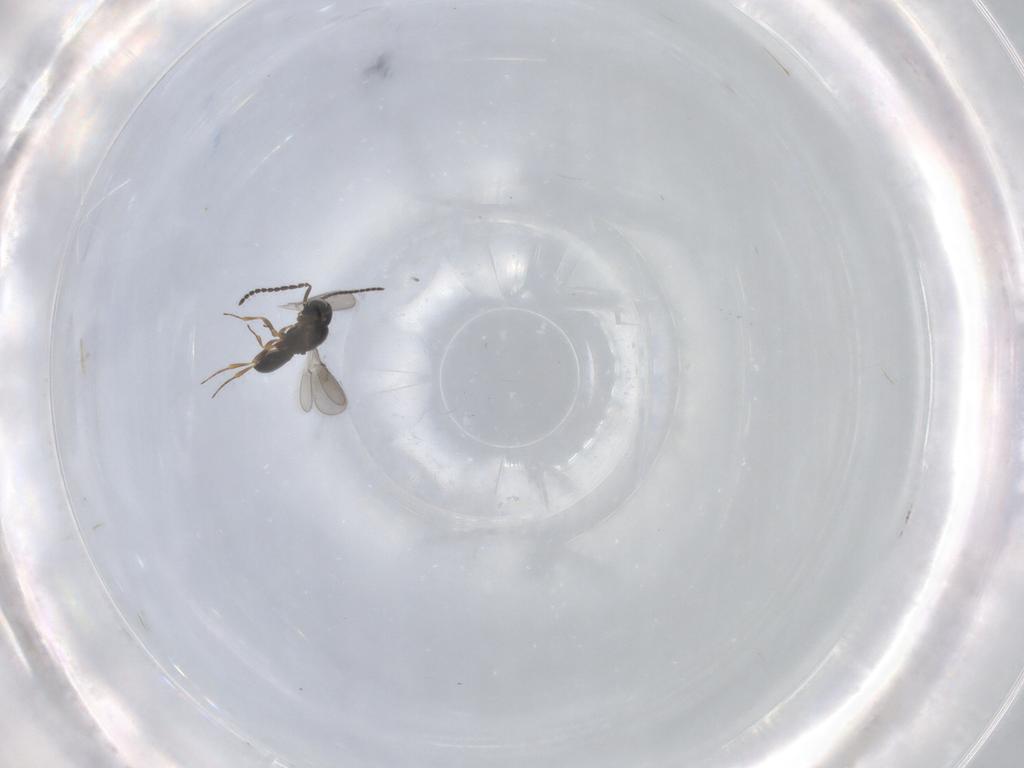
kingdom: Animalia
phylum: Arthropoda
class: Insecta
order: Hymenoptera
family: Scelionidae
